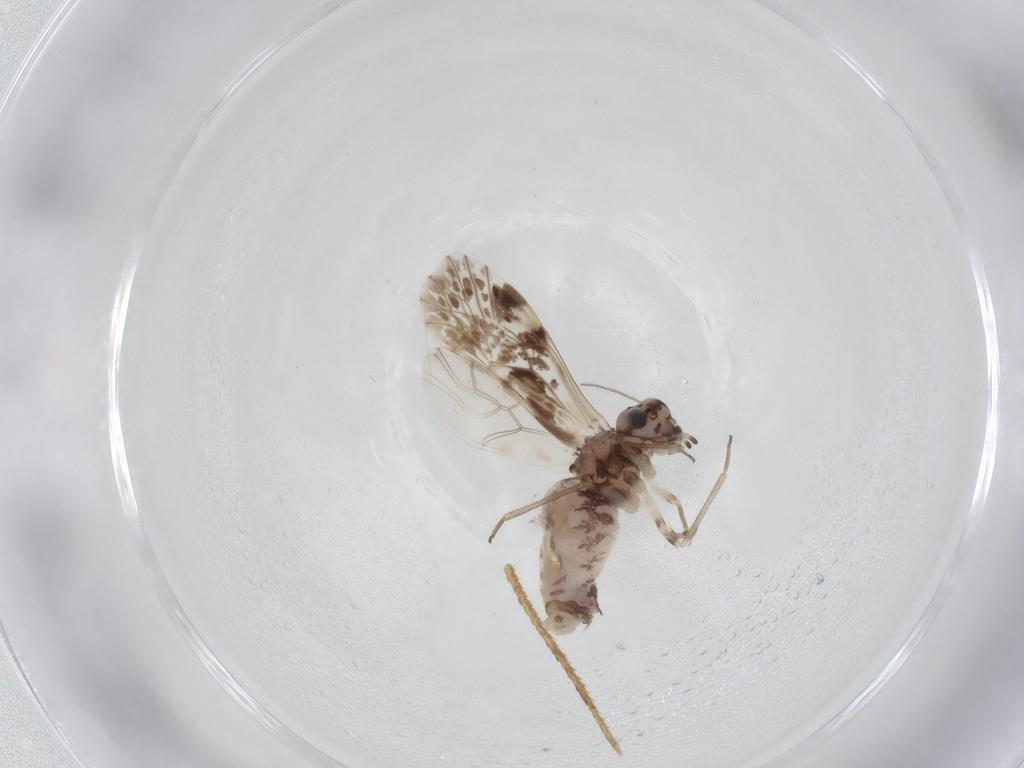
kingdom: Animalia
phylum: Arthropoda
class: Insecta
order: Psocodea
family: Psocidae
